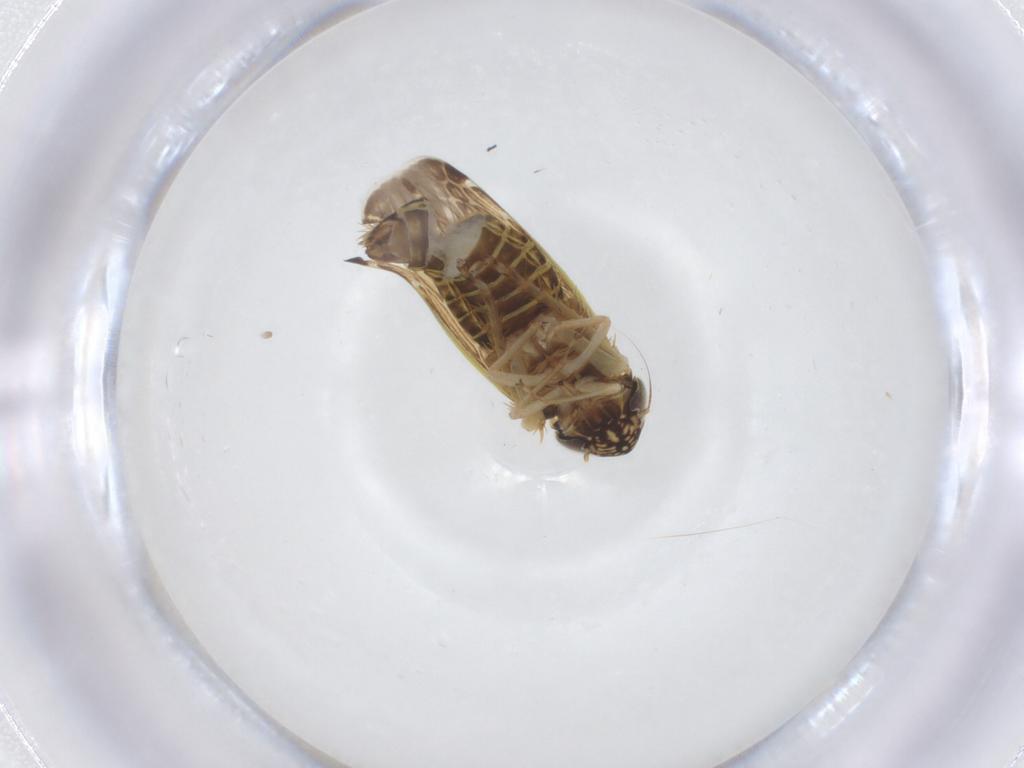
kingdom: Animalia
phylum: Arthropoda
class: Insecta
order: Hemiptera
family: Cicadellidae
